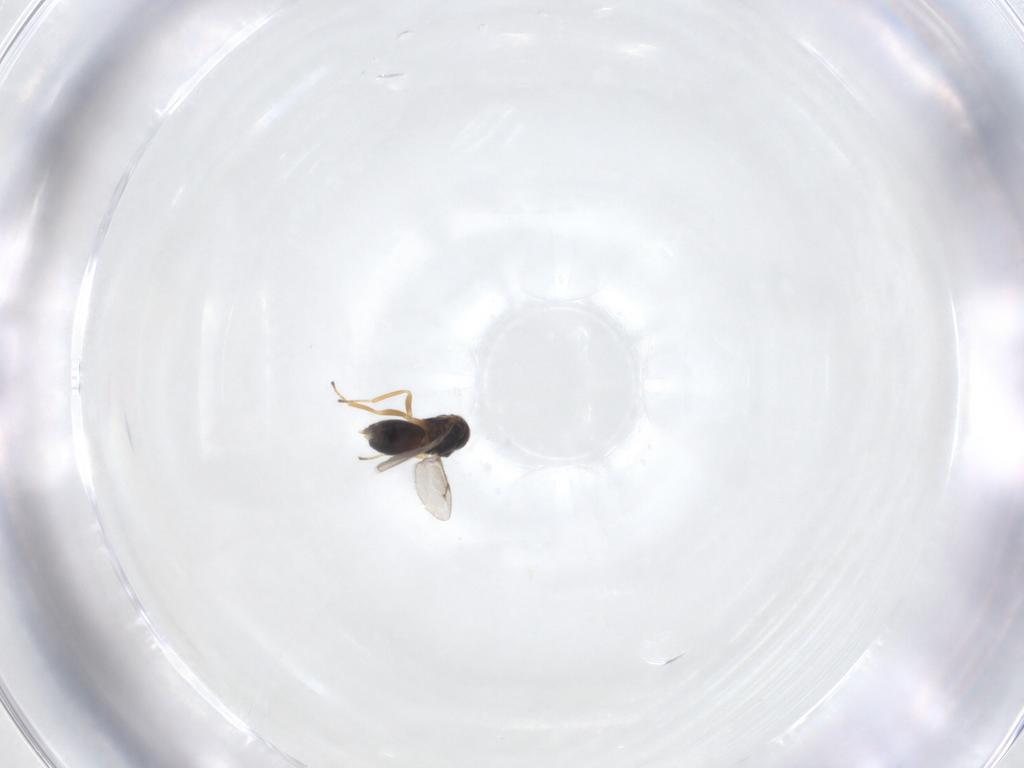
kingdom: Animalia
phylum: Arthropoda
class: Insecta
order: Hymenoptera
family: Pteromalidae
